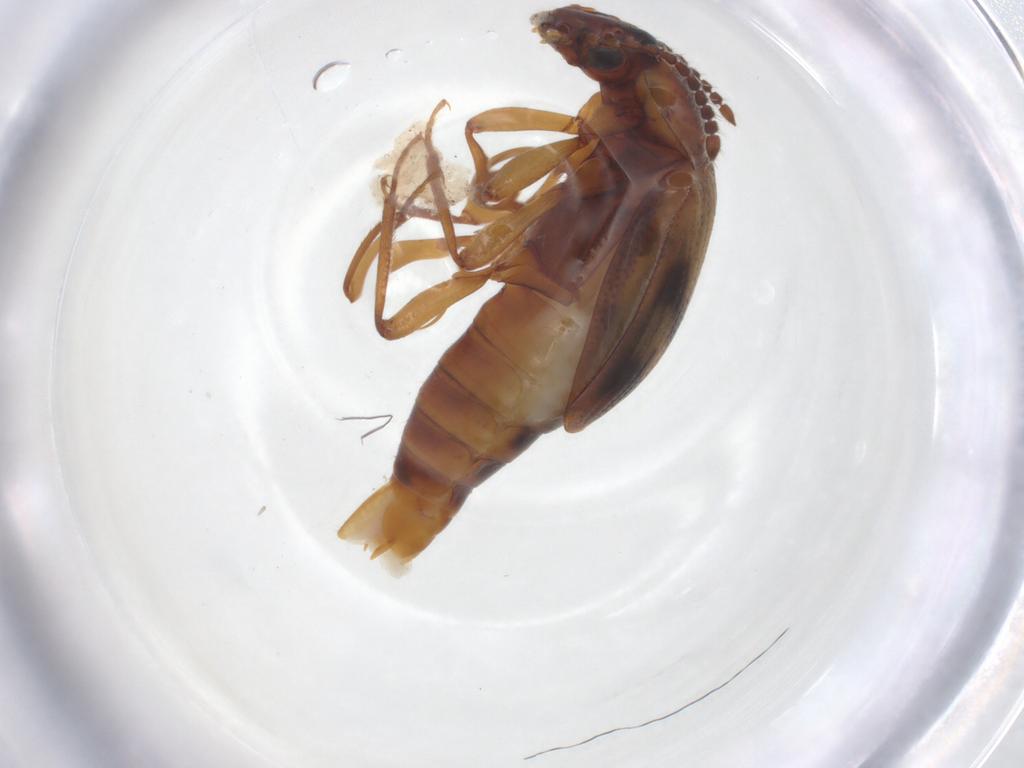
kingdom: Animalia
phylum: Arthropoda
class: Insecta
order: Coleoptera
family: Staphylinidae
